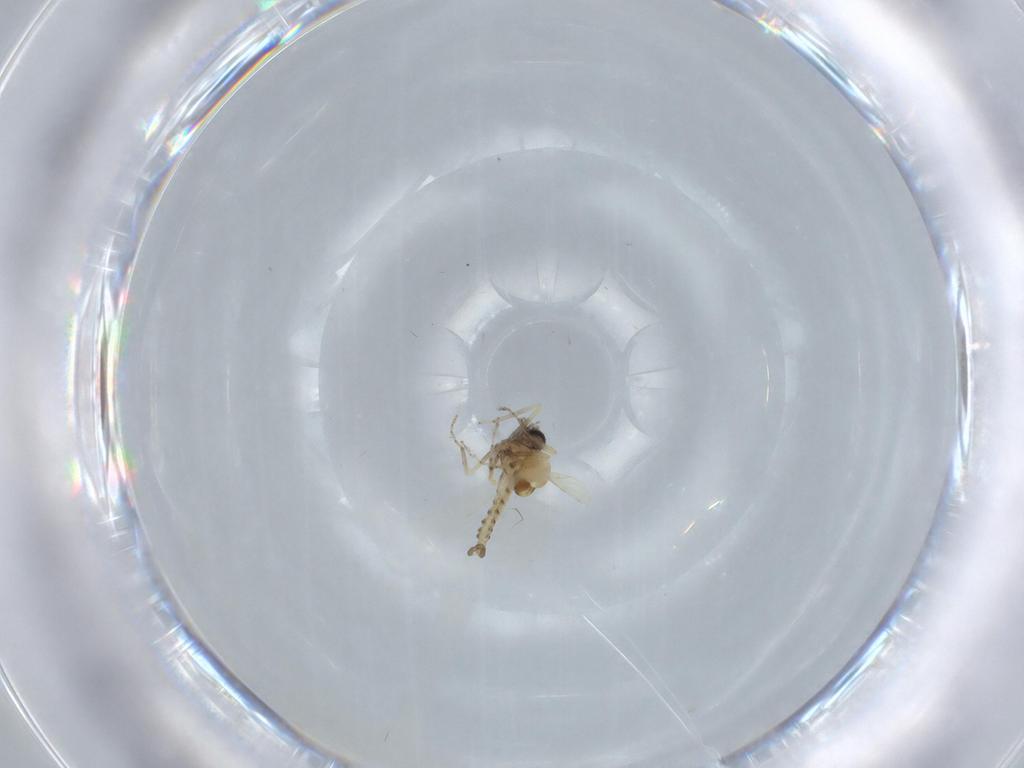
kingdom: Animalia
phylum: Arthropoda
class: Insecta
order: Diptera
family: Ceratopogonidae
